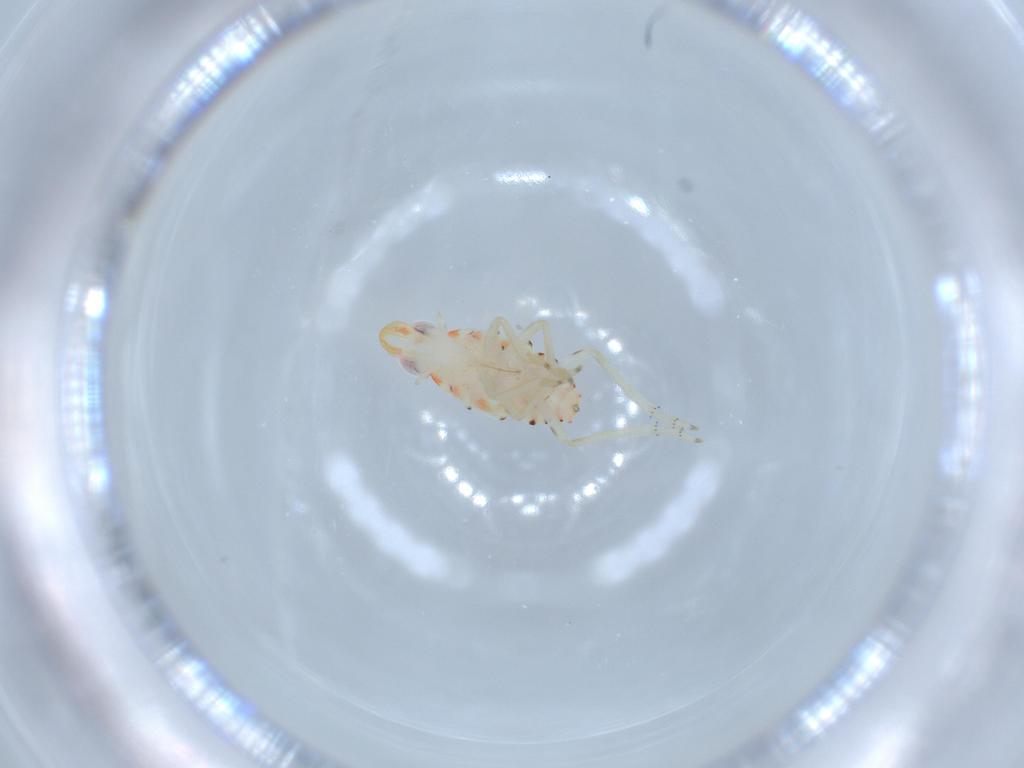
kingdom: Animalia
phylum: Arthropoda
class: Insecta
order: Hemiptera
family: Tropiduchidae
